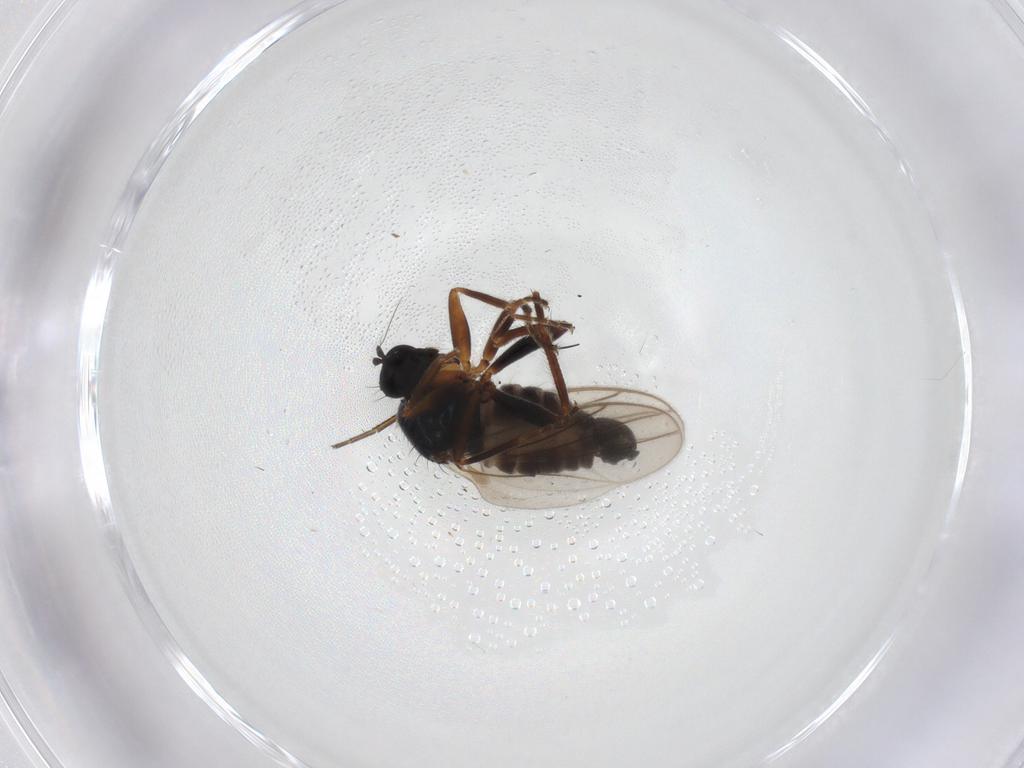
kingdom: Animalia
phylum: Arthropoda
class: Insecta
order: Diptera
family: Hybotidae
